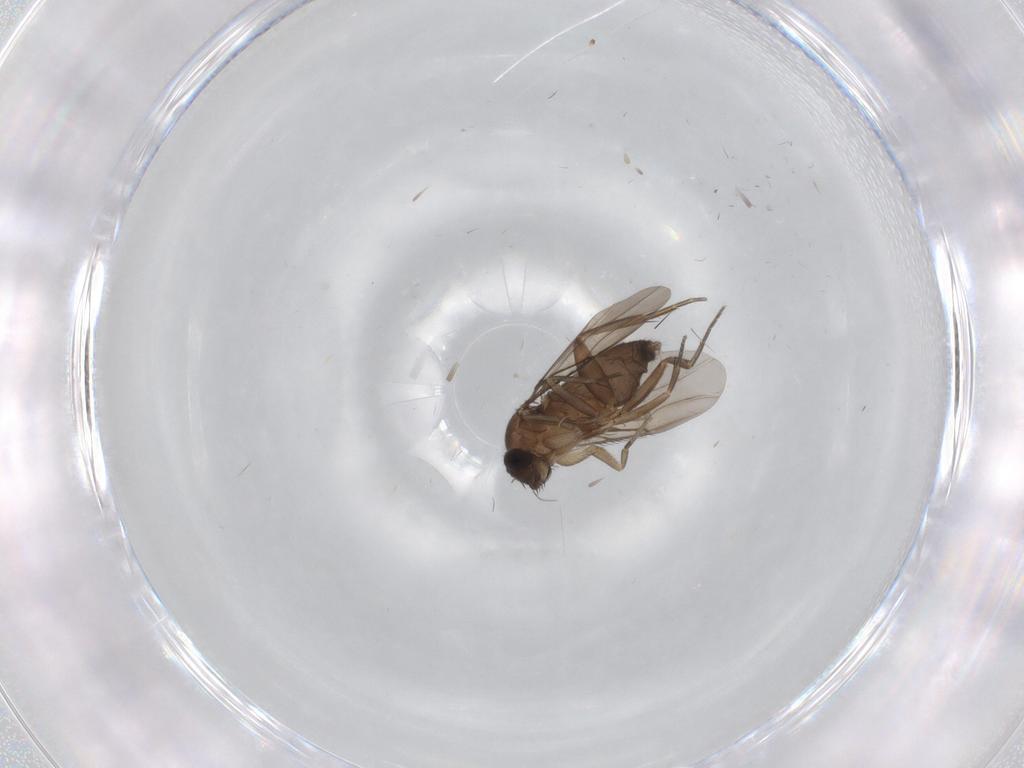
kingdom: Animalia
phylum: Arthropoda
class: Insecta
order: Diptera
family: Phoridae
